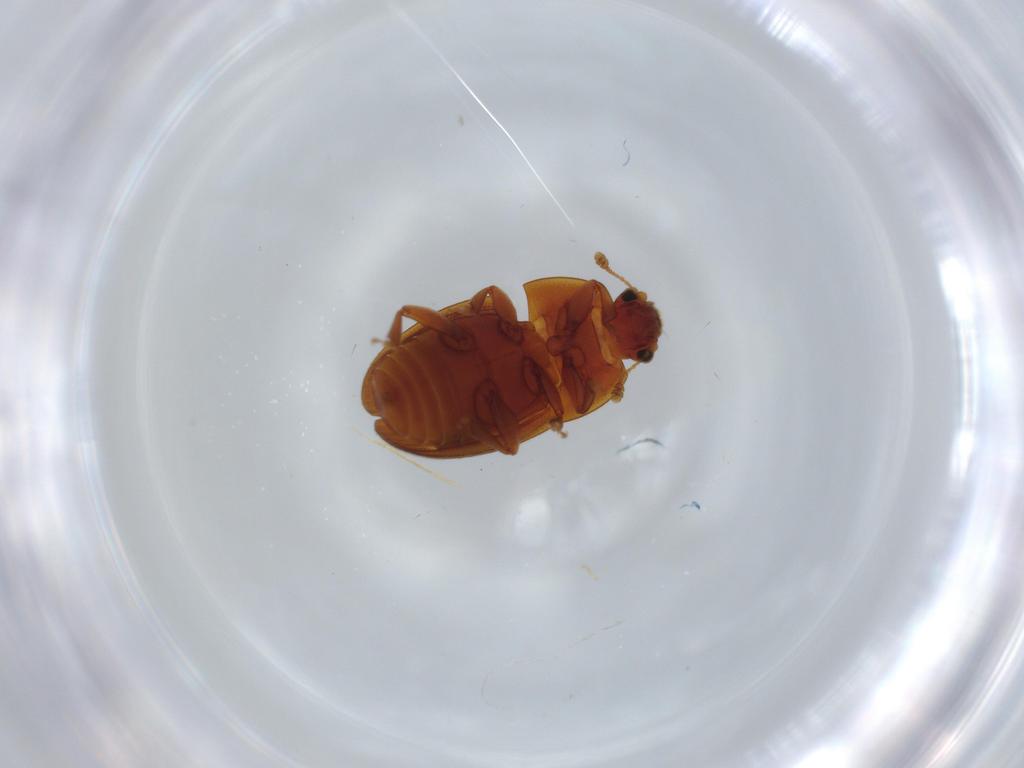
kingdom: Animalia
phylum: Arthropoda
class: Insecta
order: Coleoptera
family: Nitidulidae
